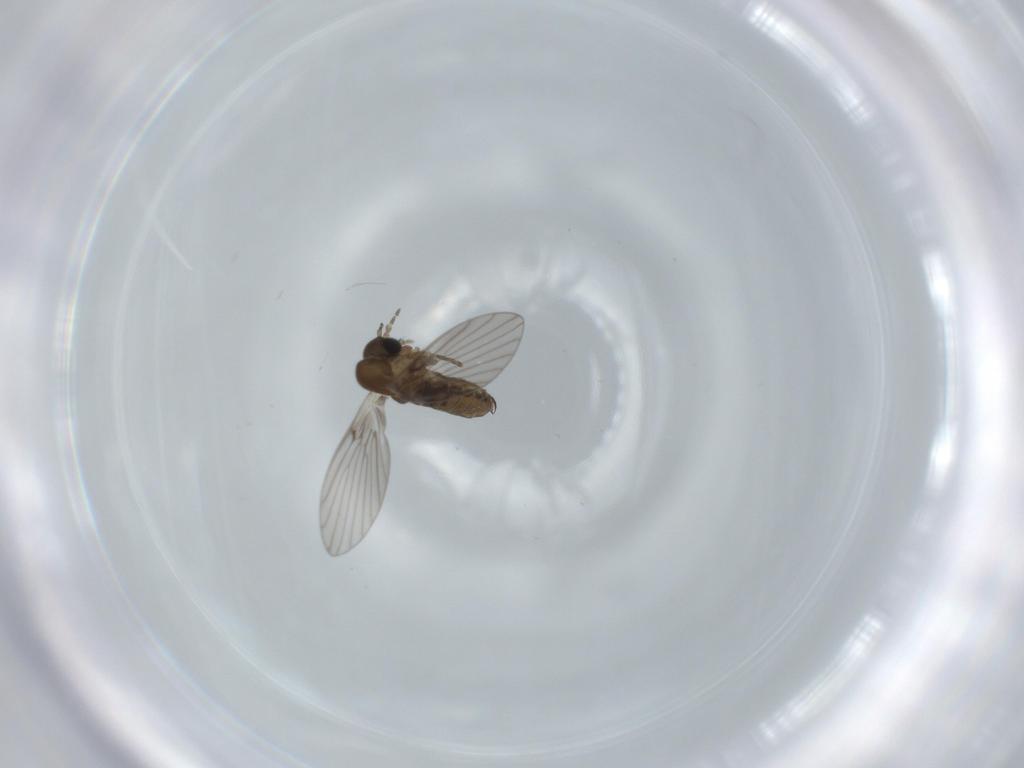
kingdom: Animalia
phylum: Arthropoda
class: Insecta
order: Diptera
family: Psychodidae
